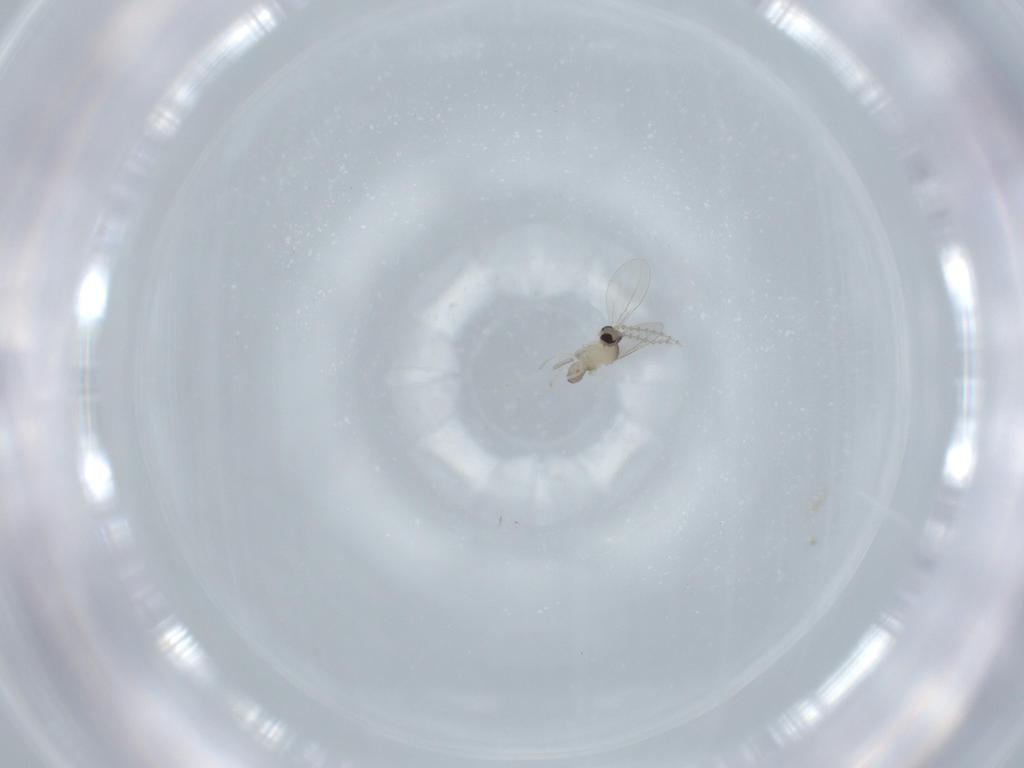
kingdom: Animalia
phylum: Arthropoda
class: Insecta
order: Diptera
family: Cecidomyiidae
